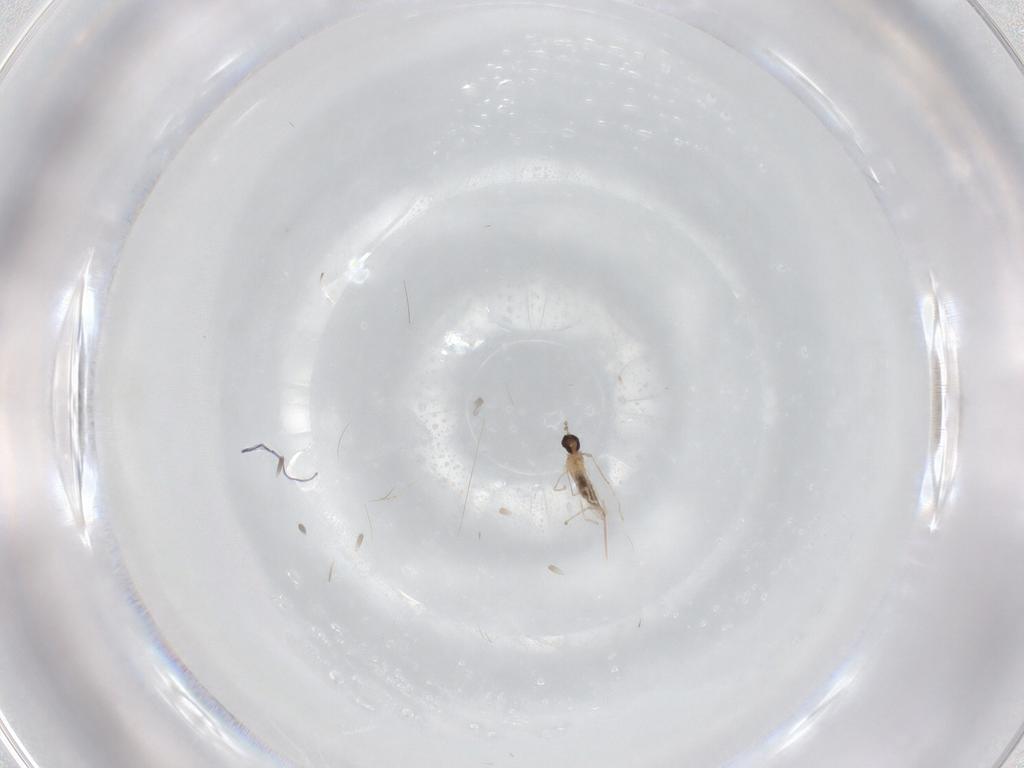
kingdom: Animalia
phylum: Arthropoda
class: Insecta
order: Diptera
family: Cecidomyiidae
